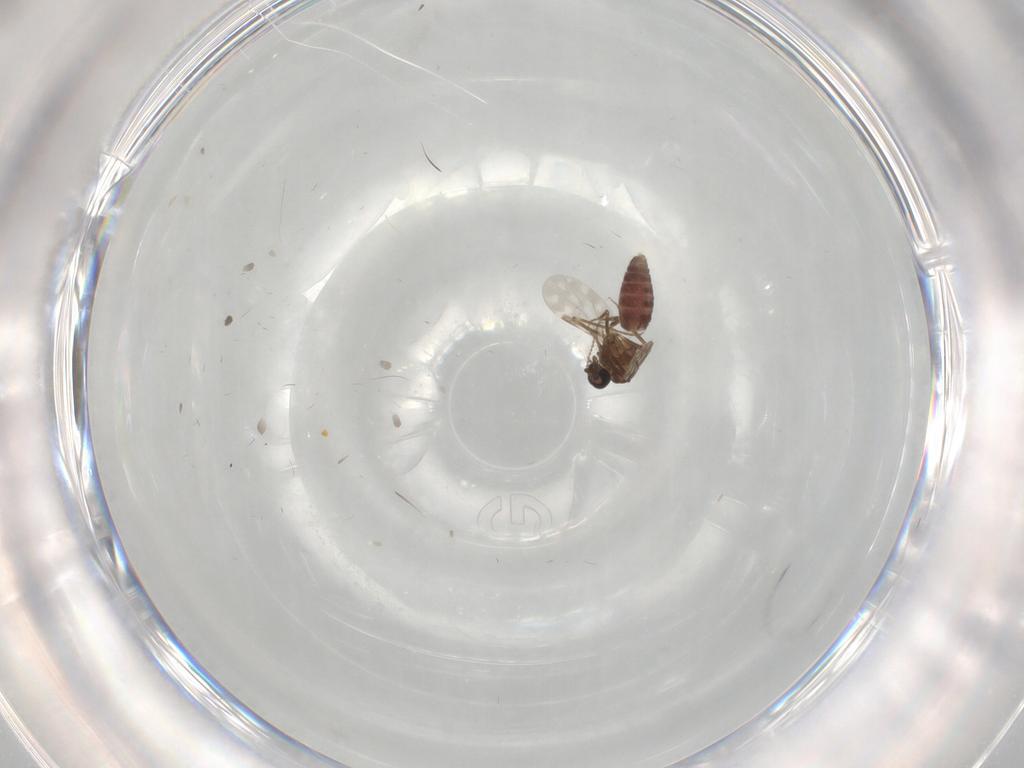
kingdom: Animalia
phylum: Arthropoda
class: Insecta
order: Diptera
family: Ceratopogonidae
